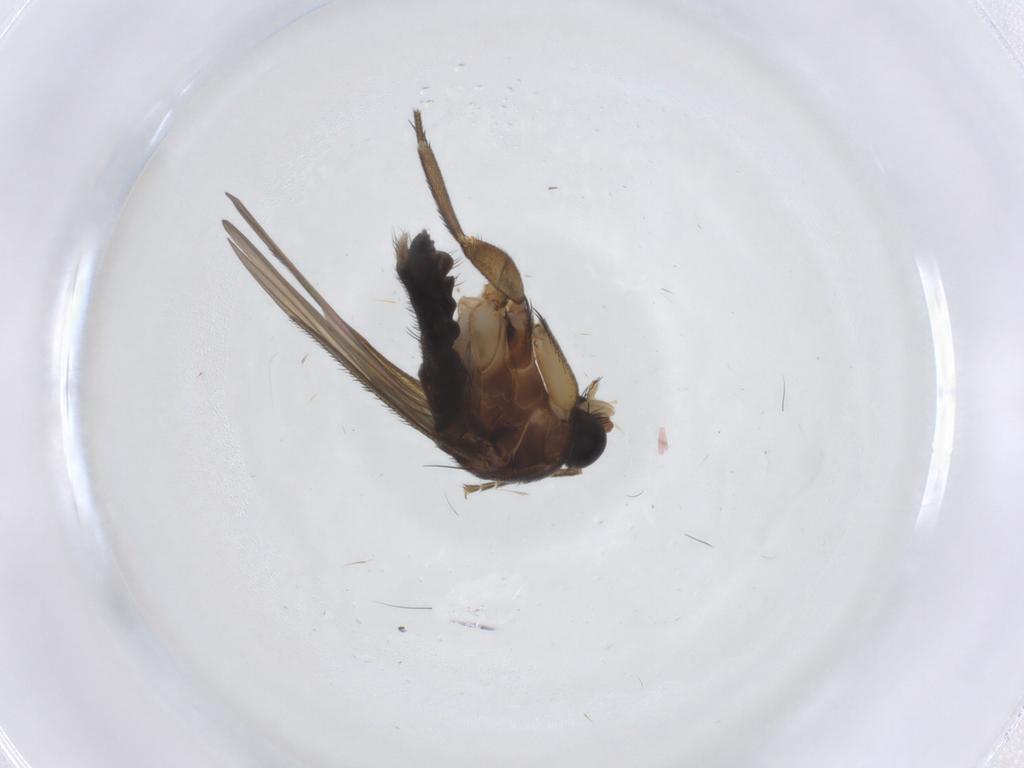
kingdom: Animalia
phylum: Arthropoda
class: Insecta
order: Diptera
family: Phoridae
